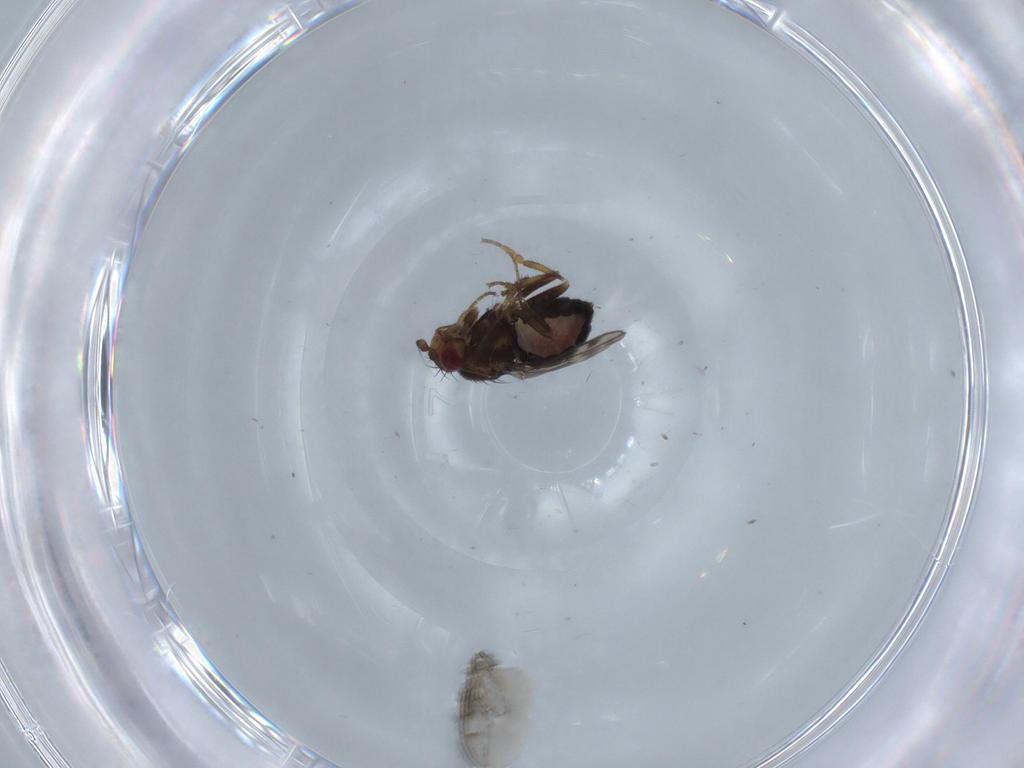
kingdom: Animalia
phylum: Arthropoda
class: Insecta
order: Diptera
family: Sphaeroceridae
